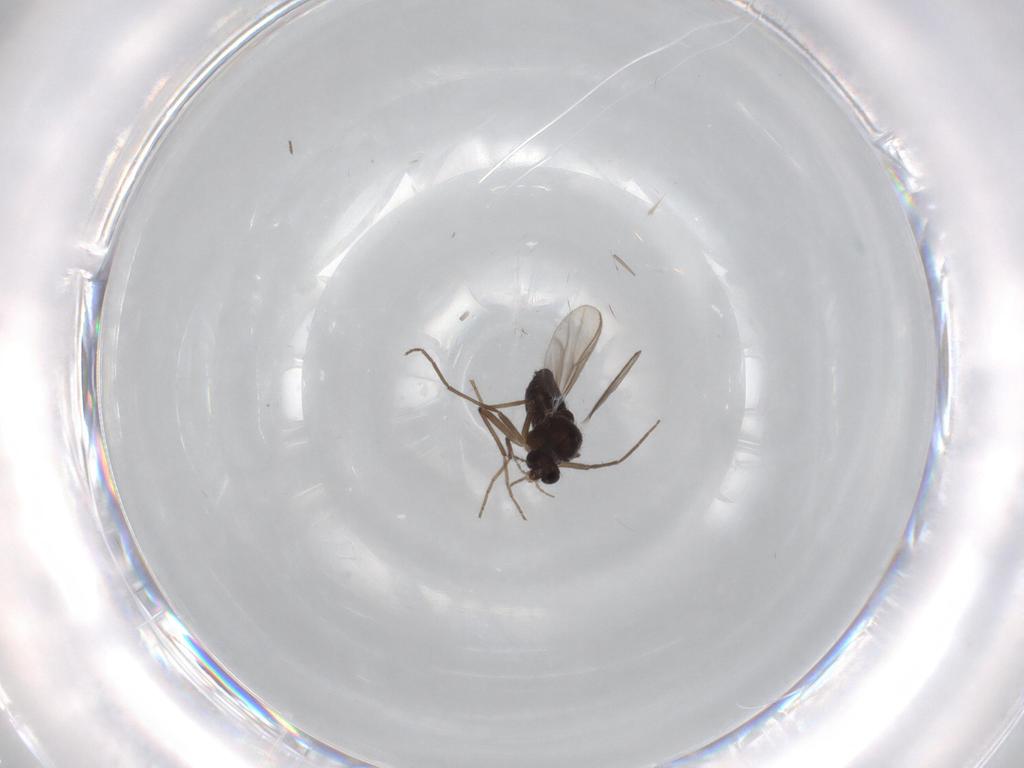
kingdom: Animalia
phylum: Arthropoda
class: Insecta
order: Diptera
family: Chironomidae
